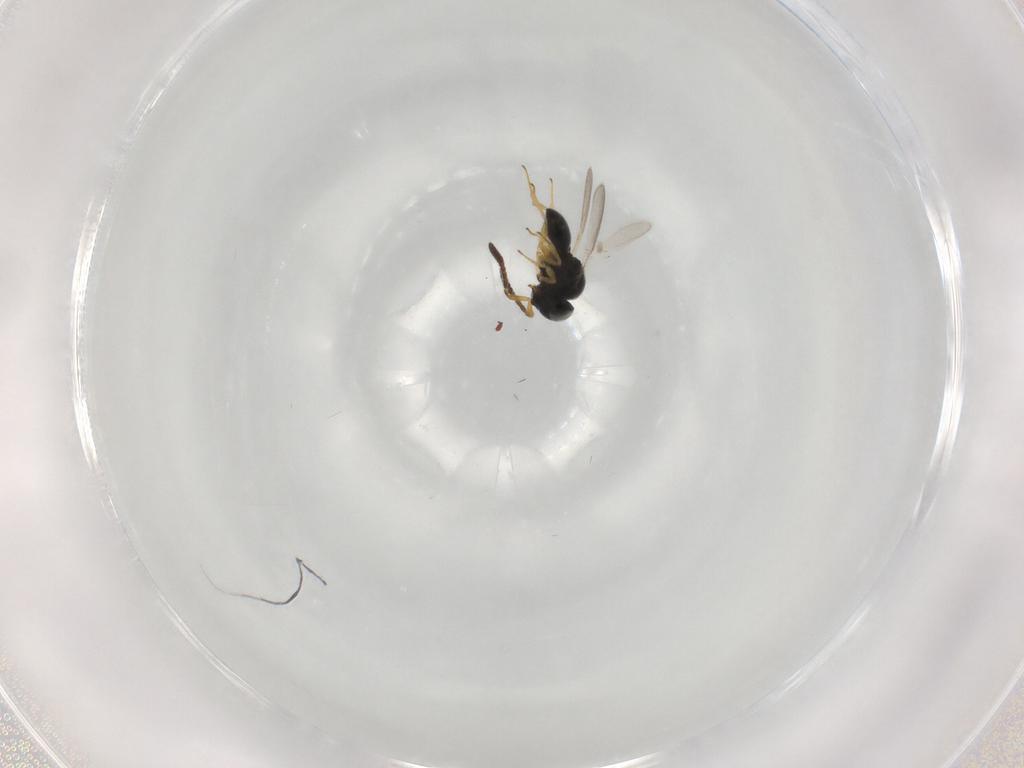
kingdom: Animalia
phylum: Arthropoda
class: Insecta
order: Hymenoptera
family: Scelionidae
